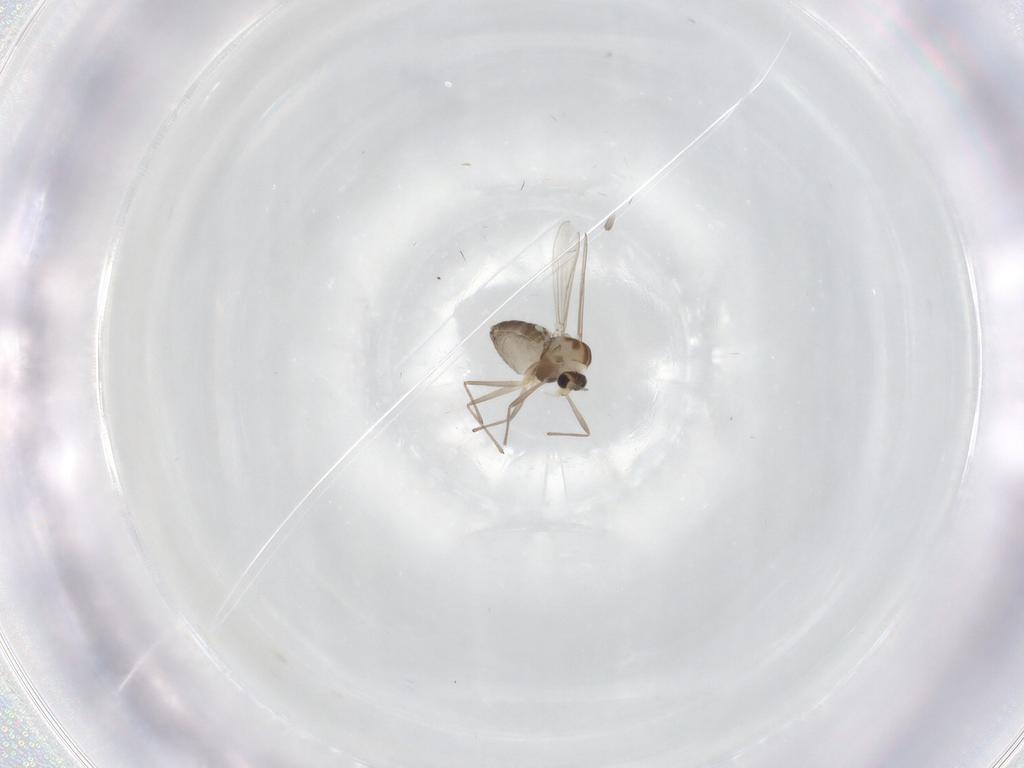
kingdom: Animalia
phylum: Arthropoda
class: Insecta
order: Diptera
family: Sciaridae
